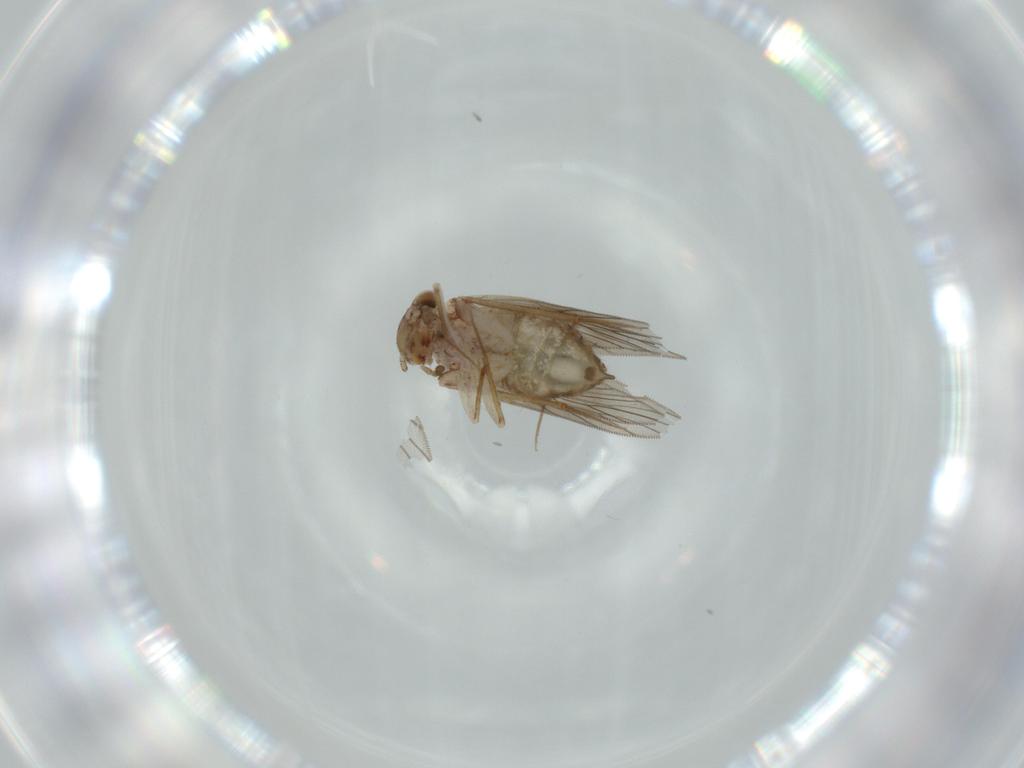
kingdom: Animalia
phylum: Arthropoda
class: Insecta
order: Psocodea
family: Lepidopsocidae
